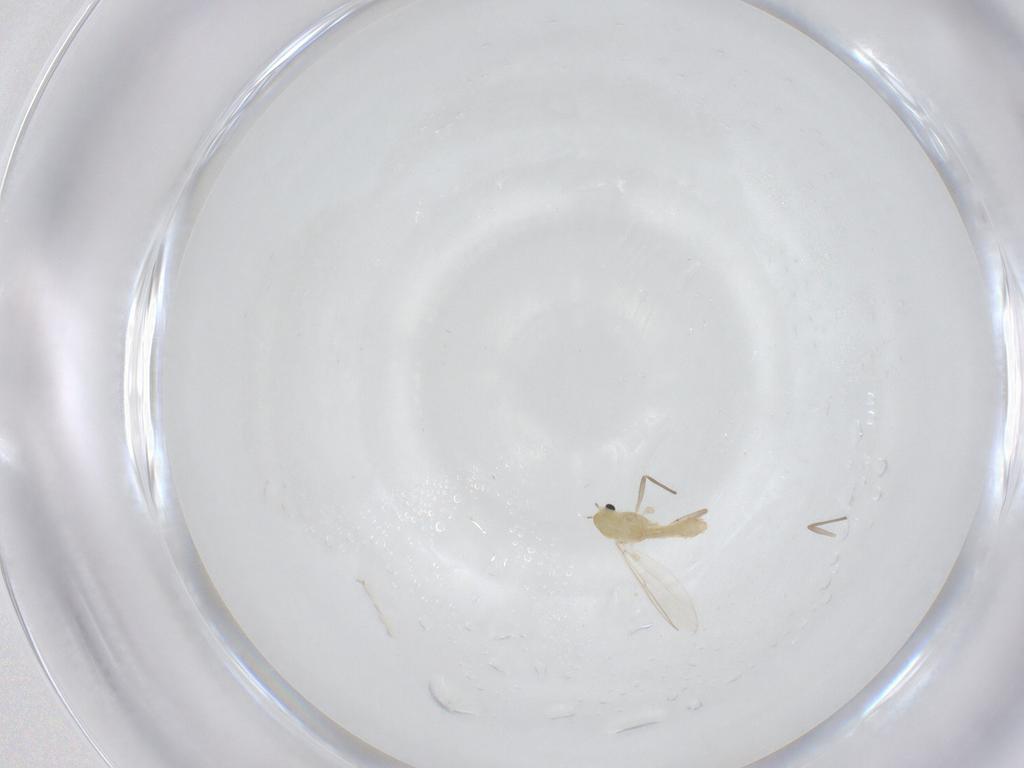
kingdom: Animalia
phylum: Arthropoda
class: Insecta
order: Diptera
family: Chironomidae
